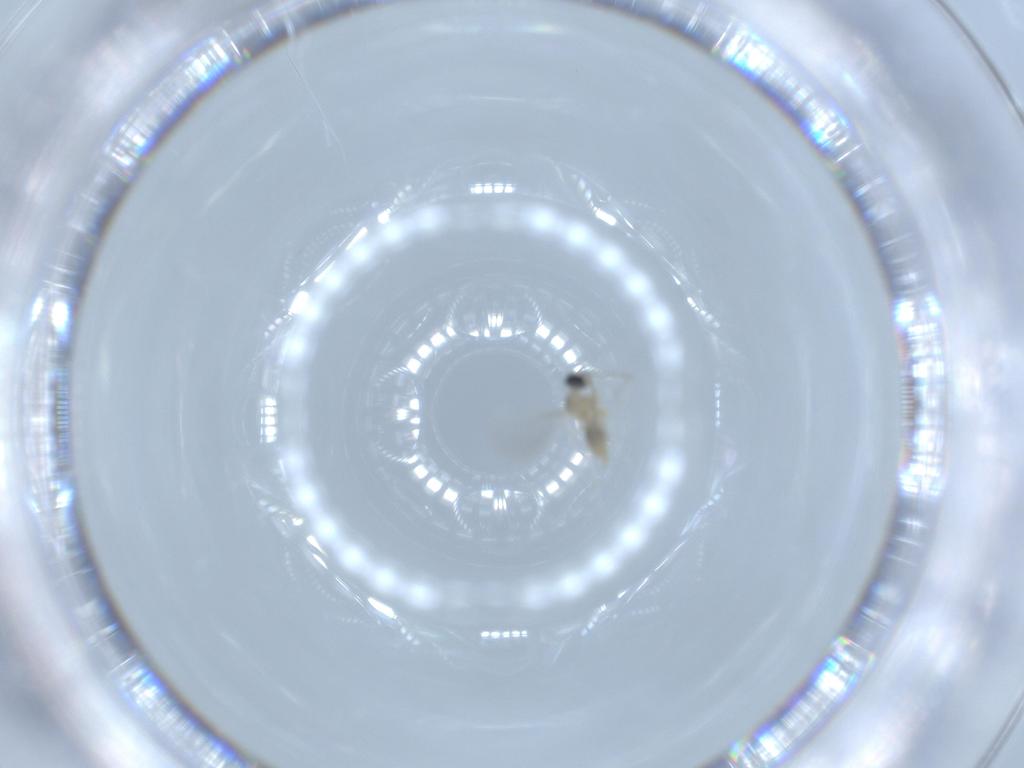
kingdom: Animalia
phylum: Arthropoda
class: Insecta
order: Diptera
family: Cecidomyiidae
